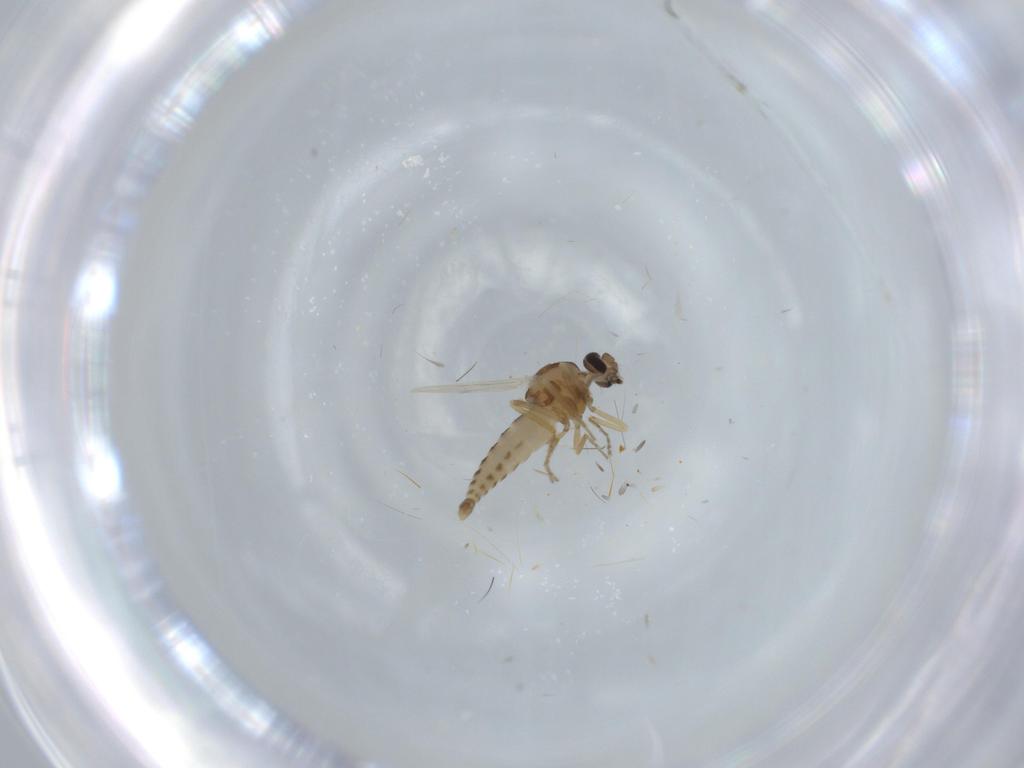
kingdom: Animalia
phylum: Arthropoda
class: Insecta
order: Diptera
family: Ceratopogonidae
